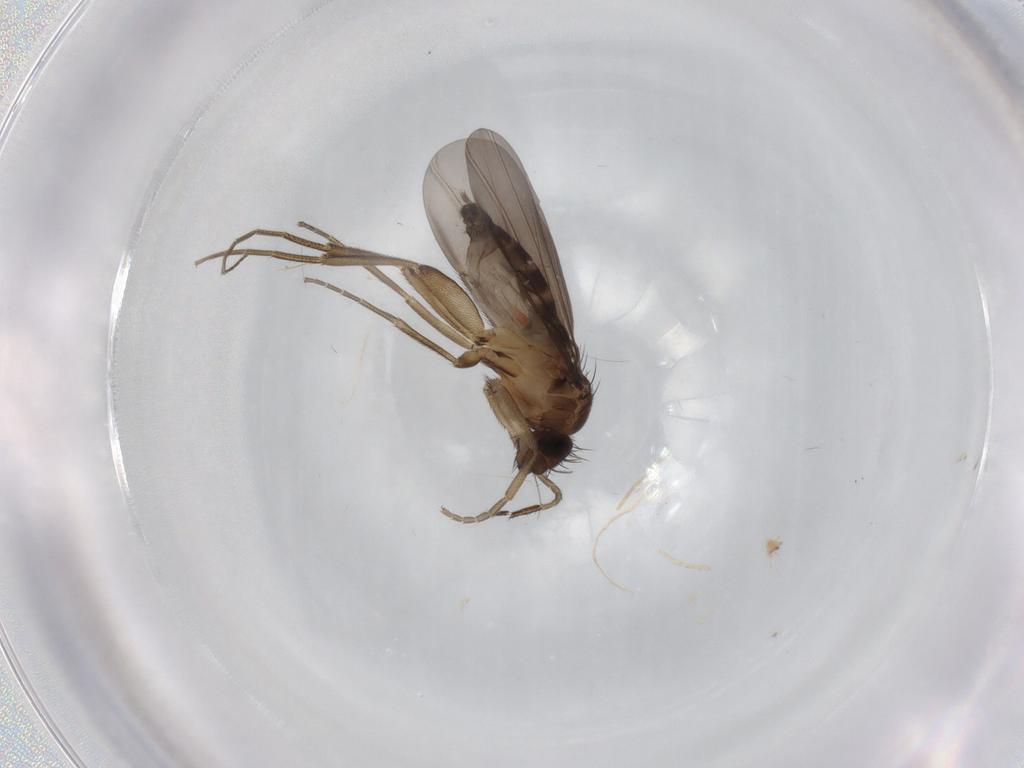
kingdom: Animalia
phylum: Arthropoda
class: Insecta
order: Diptera
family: Phoridae
